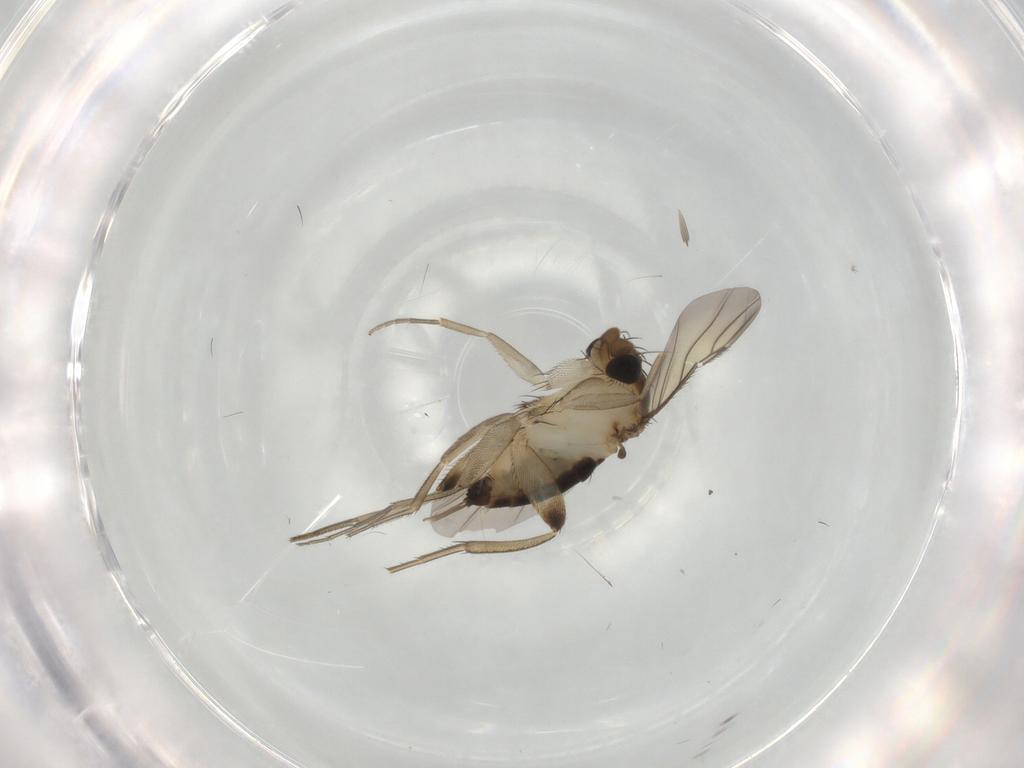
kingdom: Animalia
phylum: Arthropoda
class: Insecta
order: Diptera
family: Phoridae
